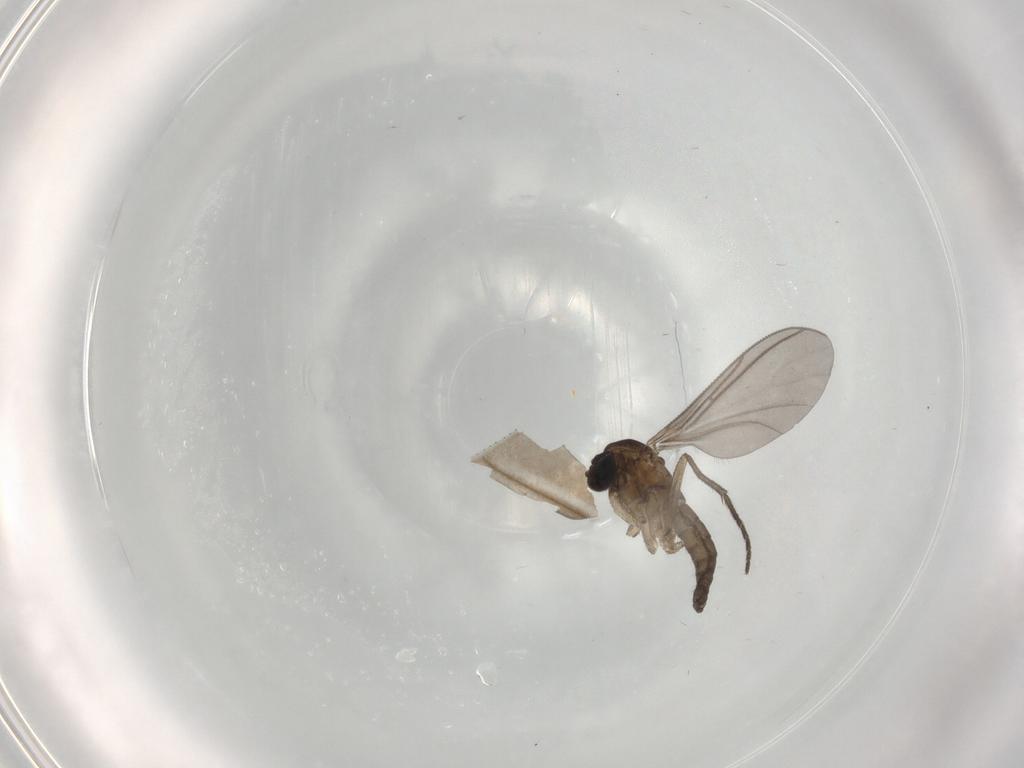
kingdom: Animalia
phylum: Arthropoda
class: Insecta
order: Diptera
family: Sciaridae
